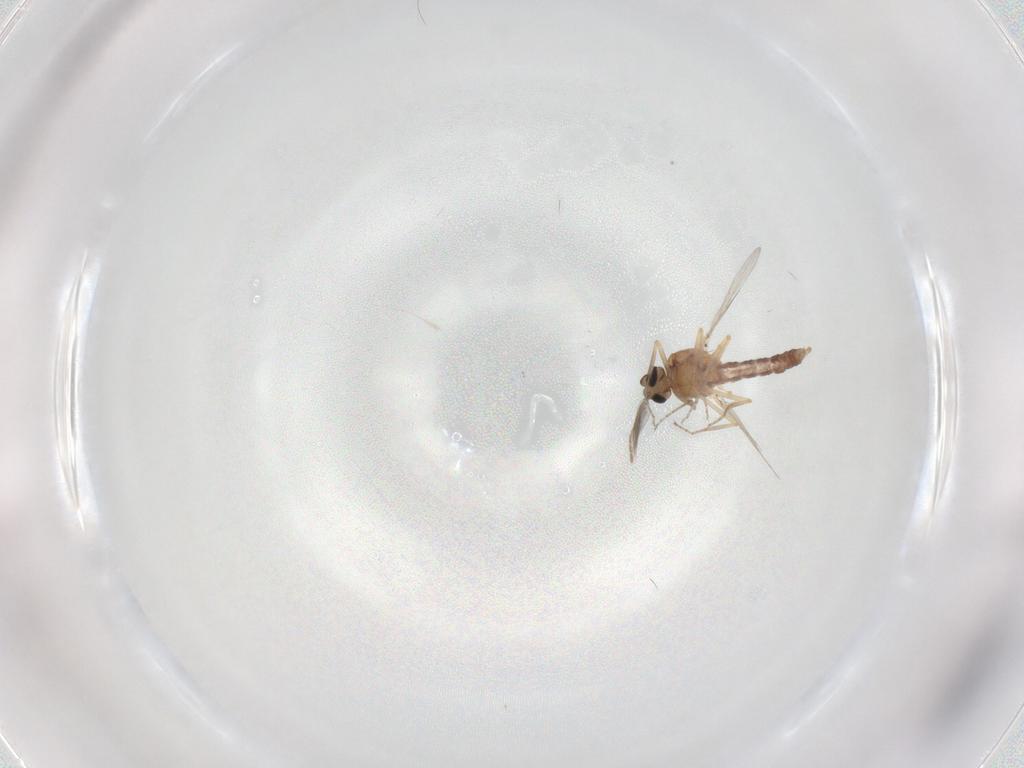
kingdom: Animalia
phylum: Arthropoda
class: Insecta
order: Diptera
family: Ceratopogonidae
